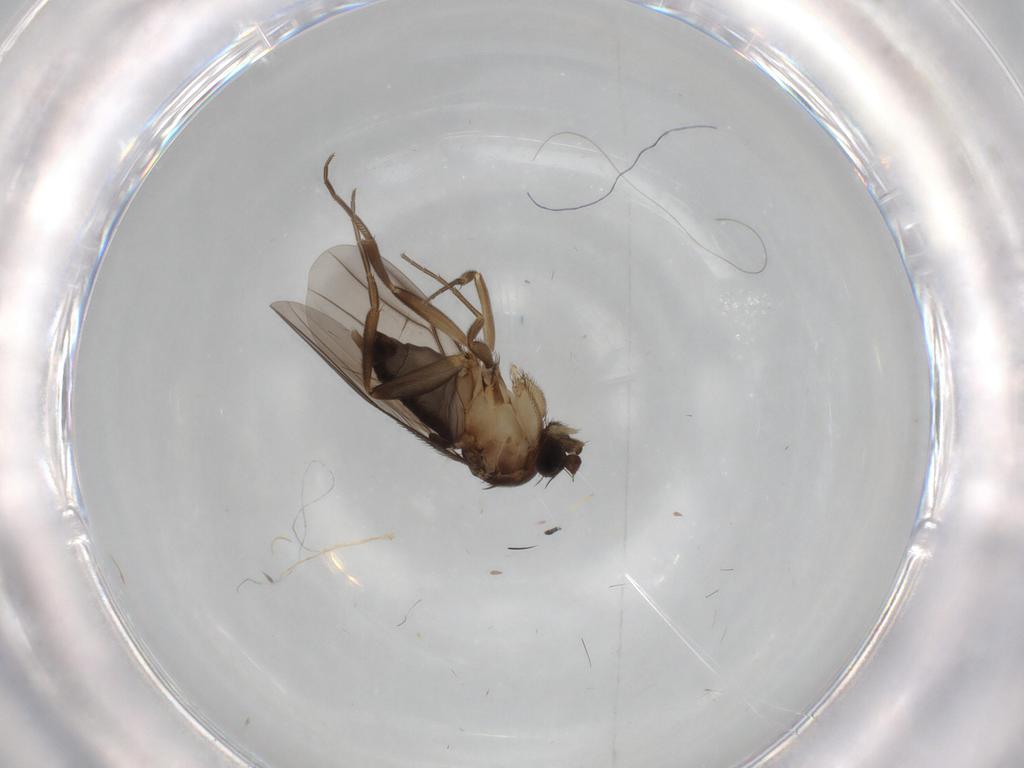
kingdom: Animalia
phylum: Arthropoda
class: Insecta
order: Diptera
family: Phoridae
